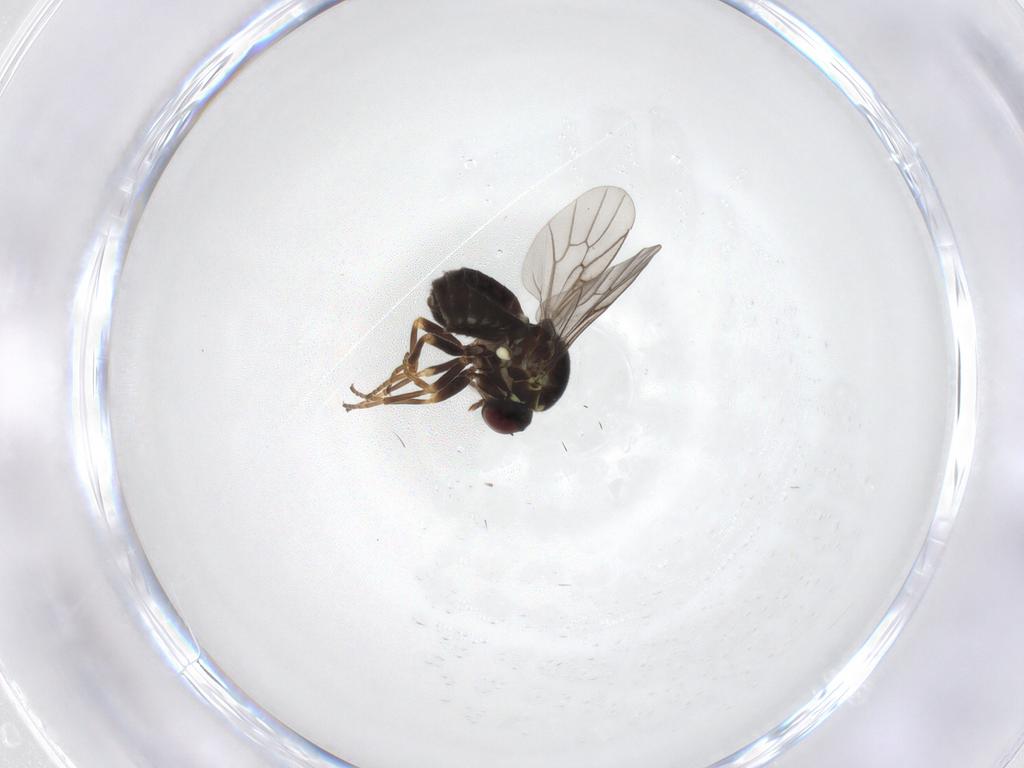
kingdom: Animalia
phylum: Arthropoda
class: Insecta
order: Diptera
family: Bombyliidae
